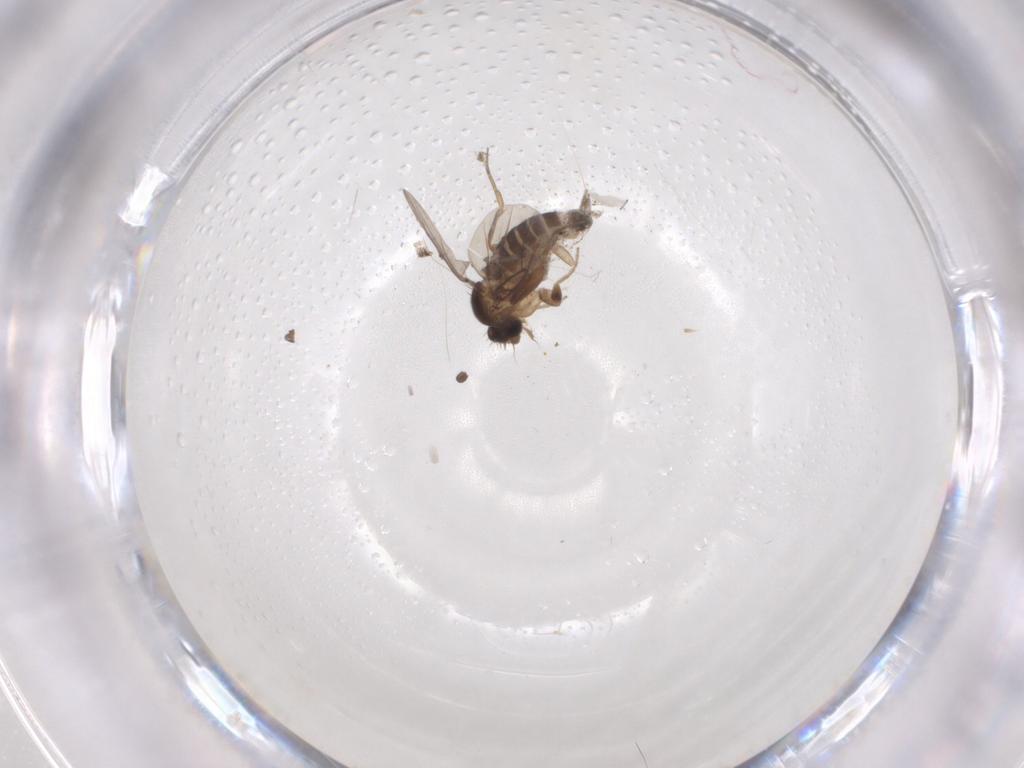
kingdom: Animalia
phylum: Arthropoda
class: Insecta
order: Diptera
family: Phoridae
